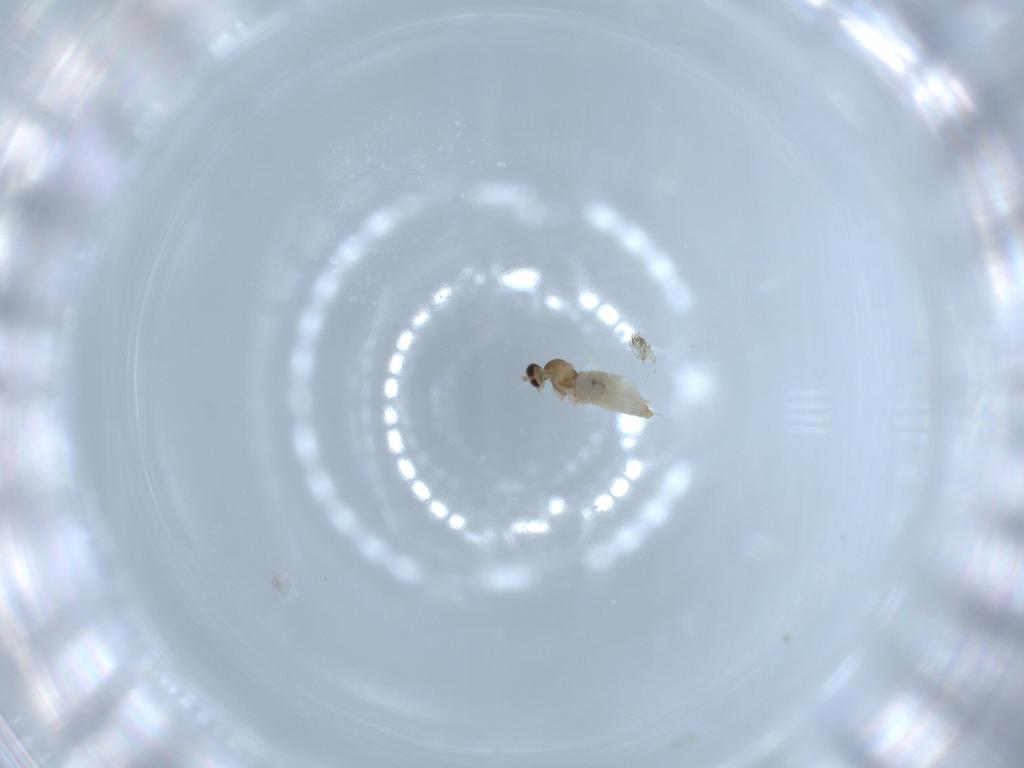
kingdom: Animalia
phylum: Arthropoda
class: Insecta
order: Diptera
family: Cecidomyiidae
